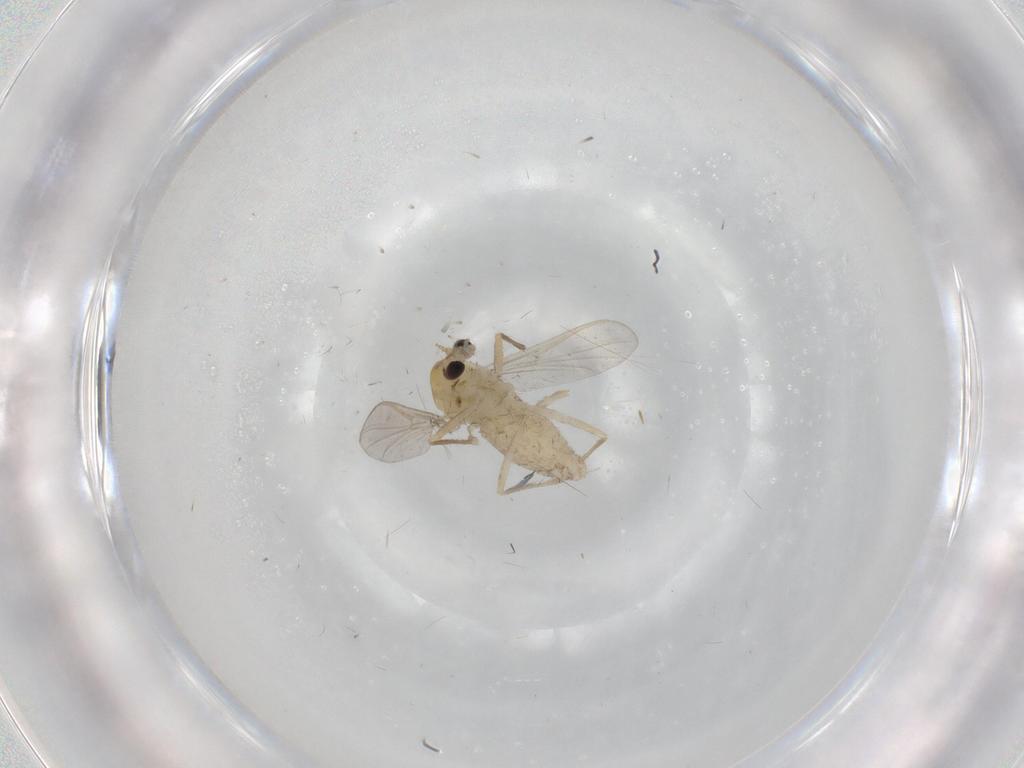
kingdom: Animalia
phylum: Arthropoda
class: Insecta
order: Diptera
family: Chironomidae
